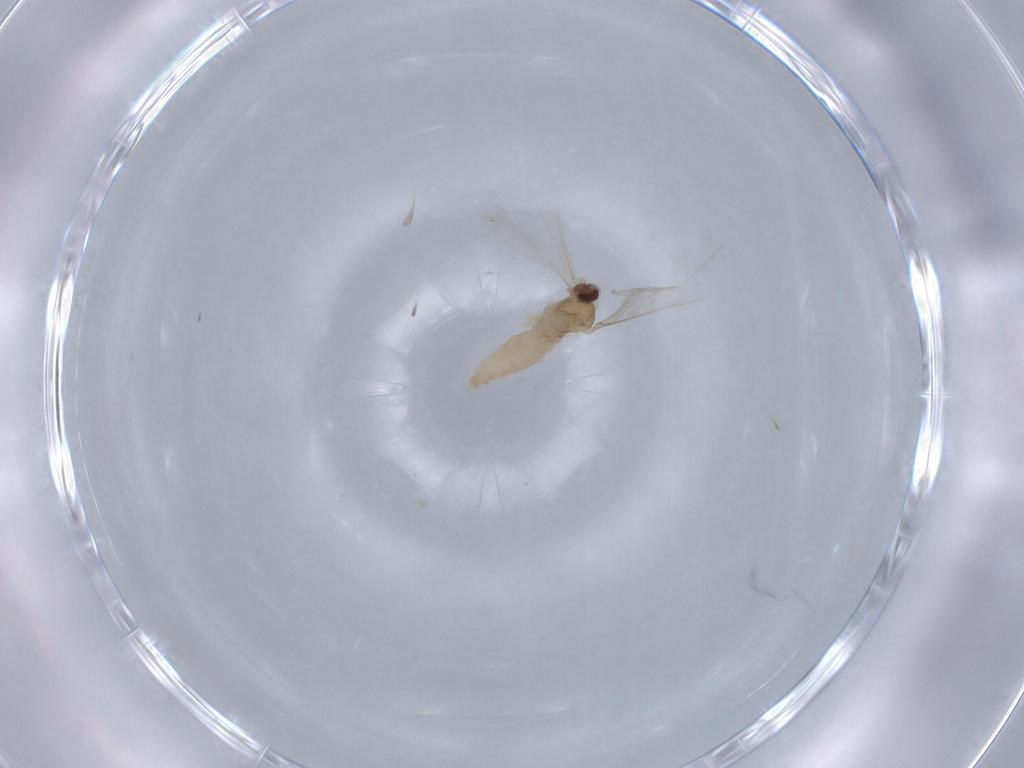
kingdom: Animalia
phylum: Arthropoda
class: Insecta
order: Diptera
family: Cecidomyiidae
